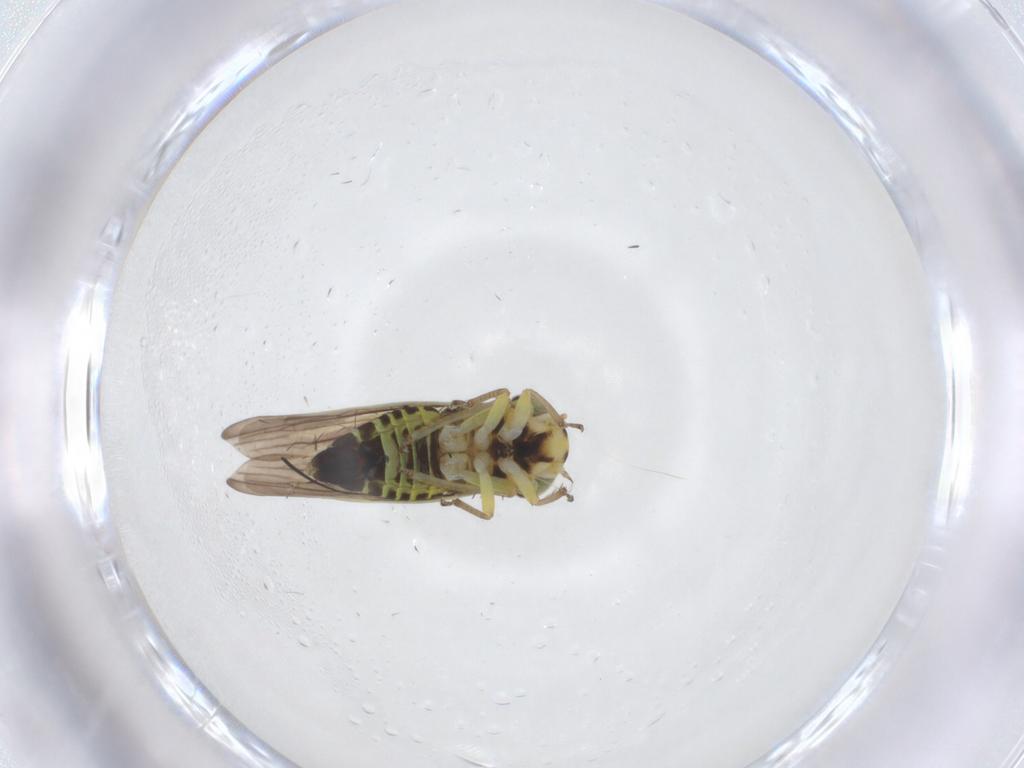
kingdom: Animalia
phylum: Arthropoda
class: Insecta
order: Hemiptera
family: Cicadellidae
